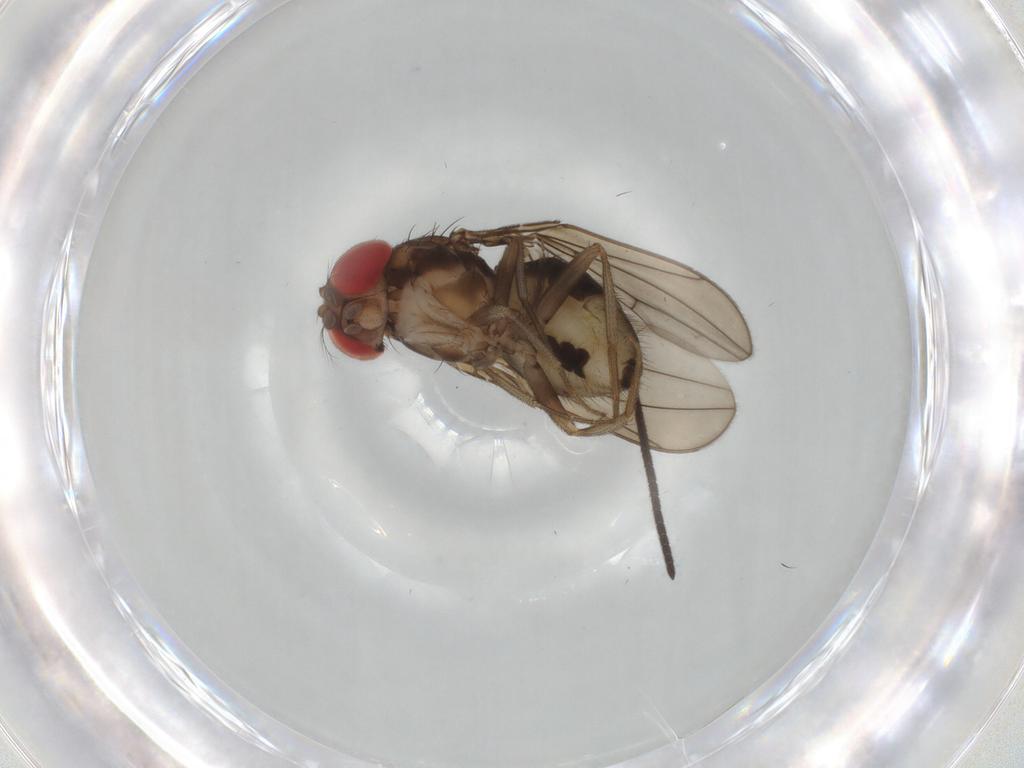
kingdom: Animalia
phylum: Arthropoda
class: Insecta
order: Diptera
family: Drosophilidae
